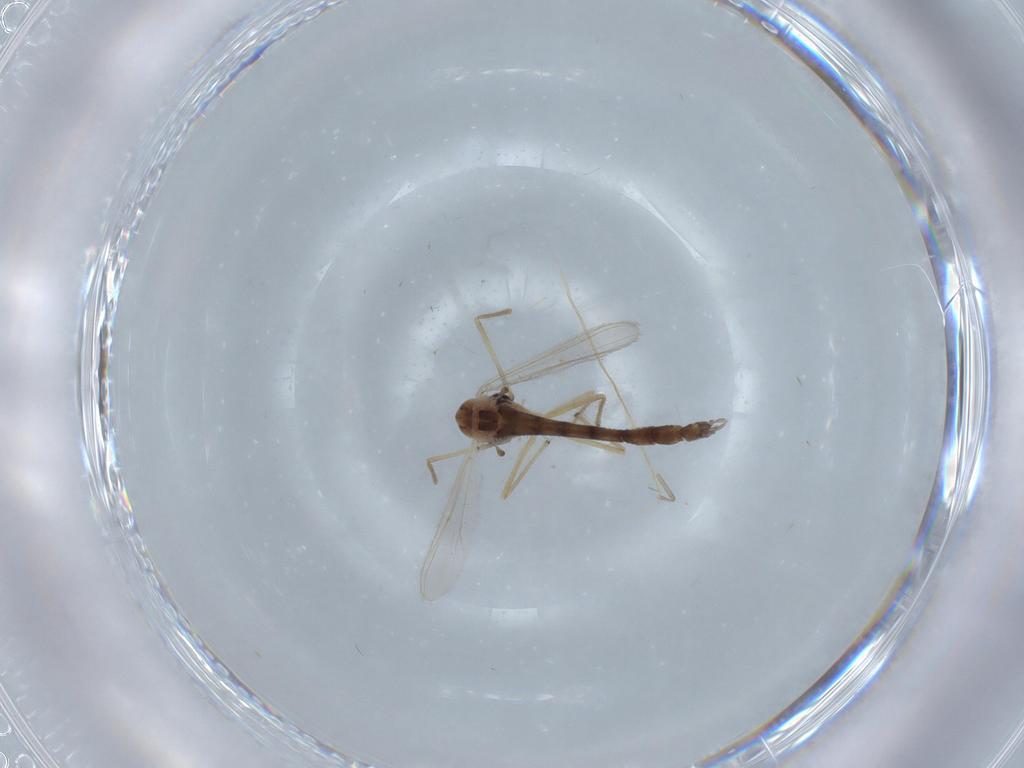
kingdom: Animalia
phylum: Arthropoda
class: Insecta
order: Diptera
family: Phoridae
